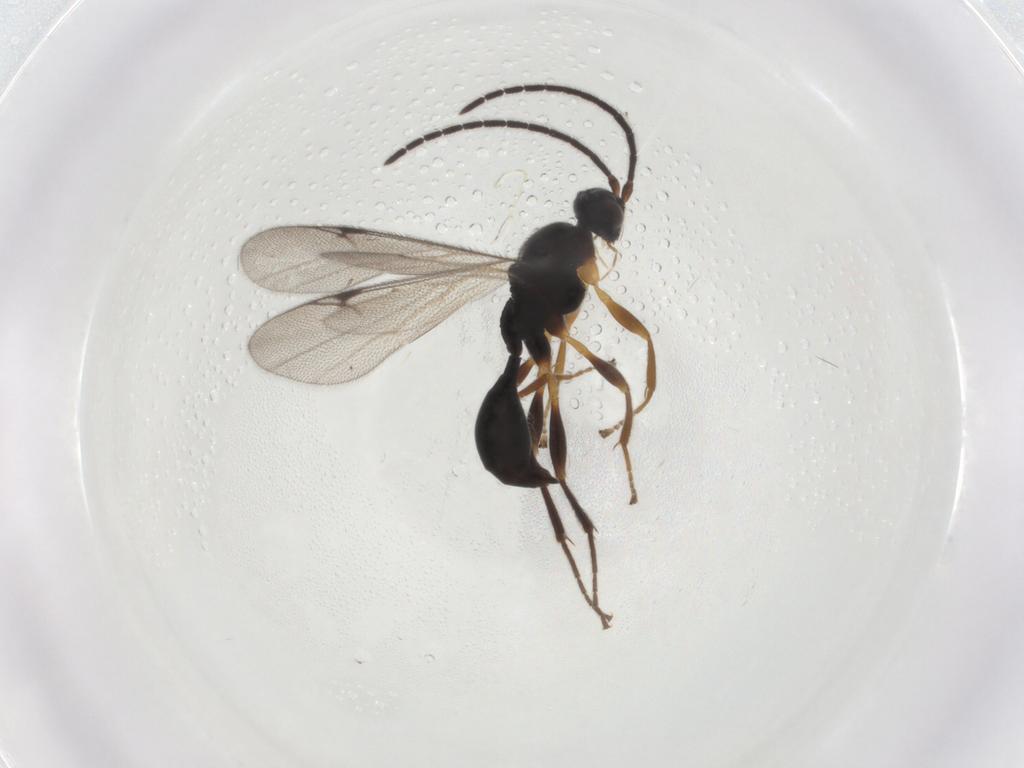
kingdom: Animalia
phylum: Arthropoda
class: Insecta
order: Hymenoptera
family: Proctotrupidae
